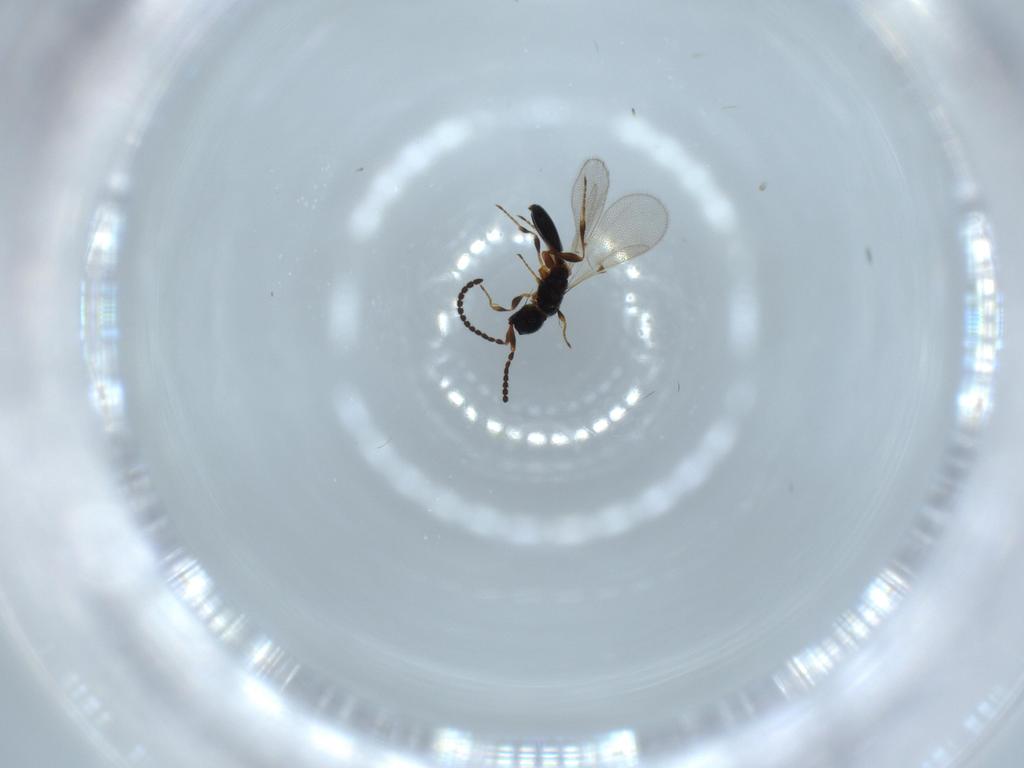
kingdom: Animalia
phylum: Arthropoda
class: Insecta
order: Hymenoptera
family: Diapriidae
